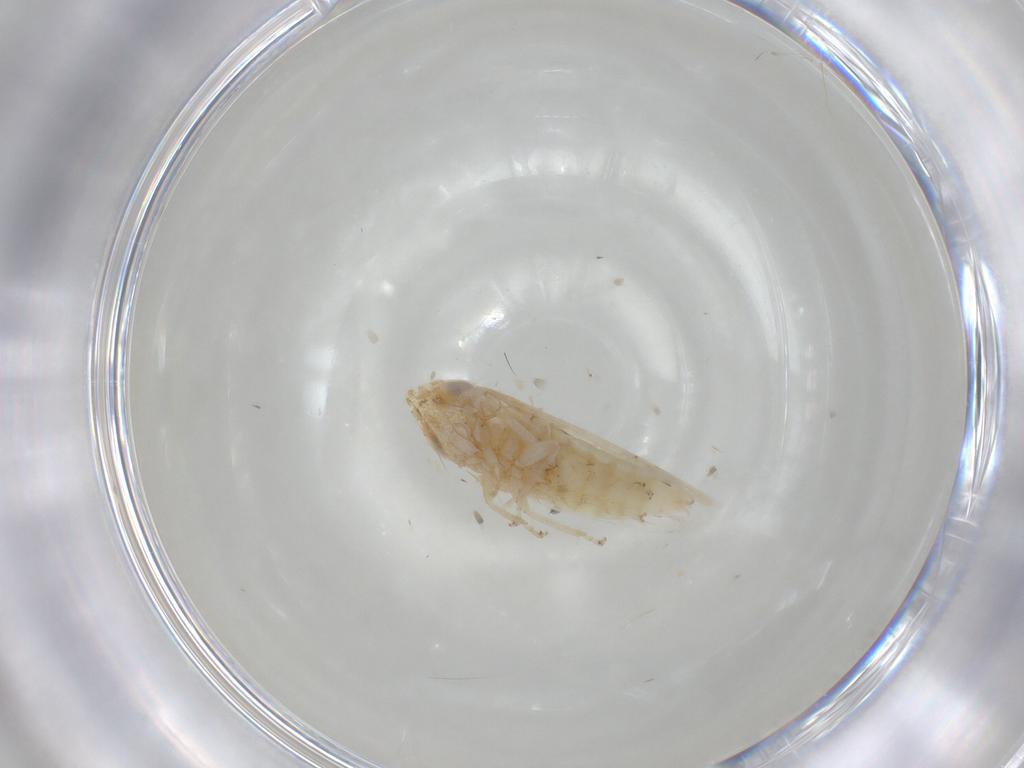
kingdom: Animalia
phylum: Arthropoda
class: Insecta
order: Hemiptera
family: Cicadellidae
